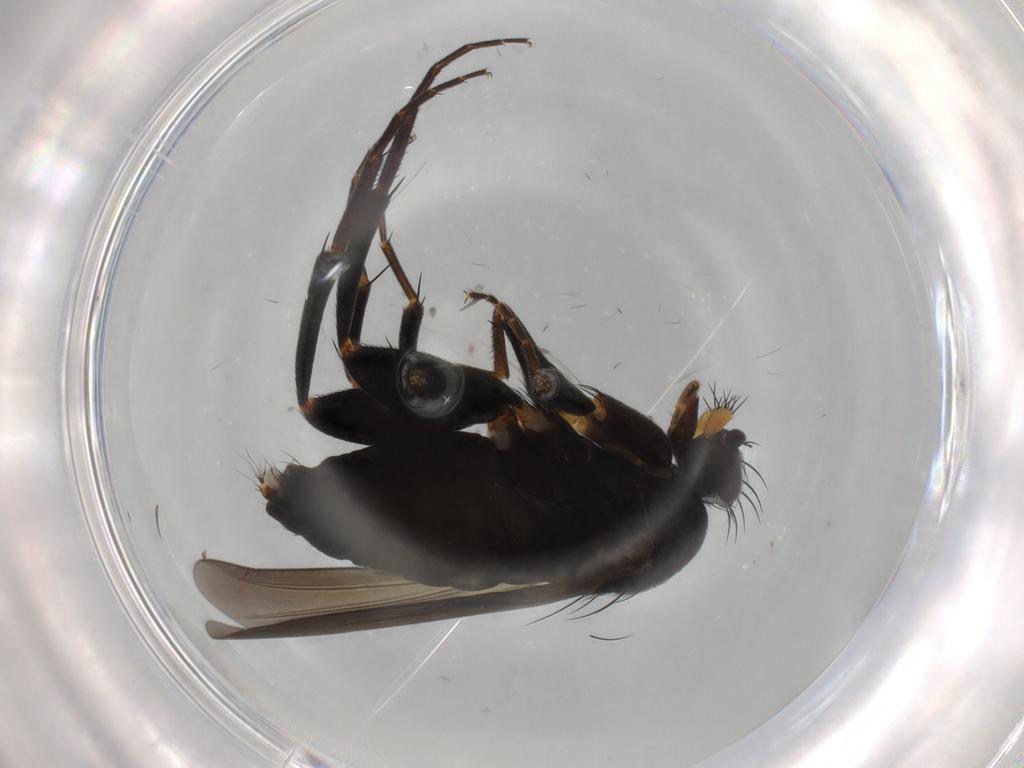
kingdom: Animalia
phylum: Arthropoda
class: Insecta
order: Diptera
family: Phoridae
